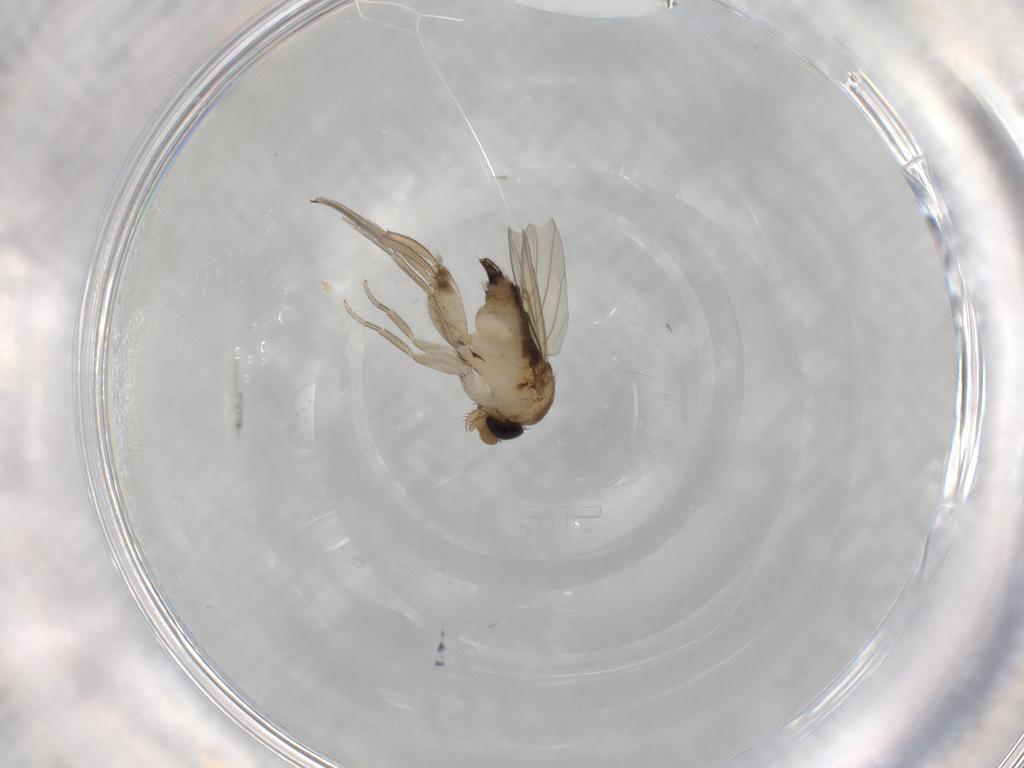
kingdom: Animalia
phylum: Arthropoda
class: Insecta
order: Diptera
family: Phoridae
